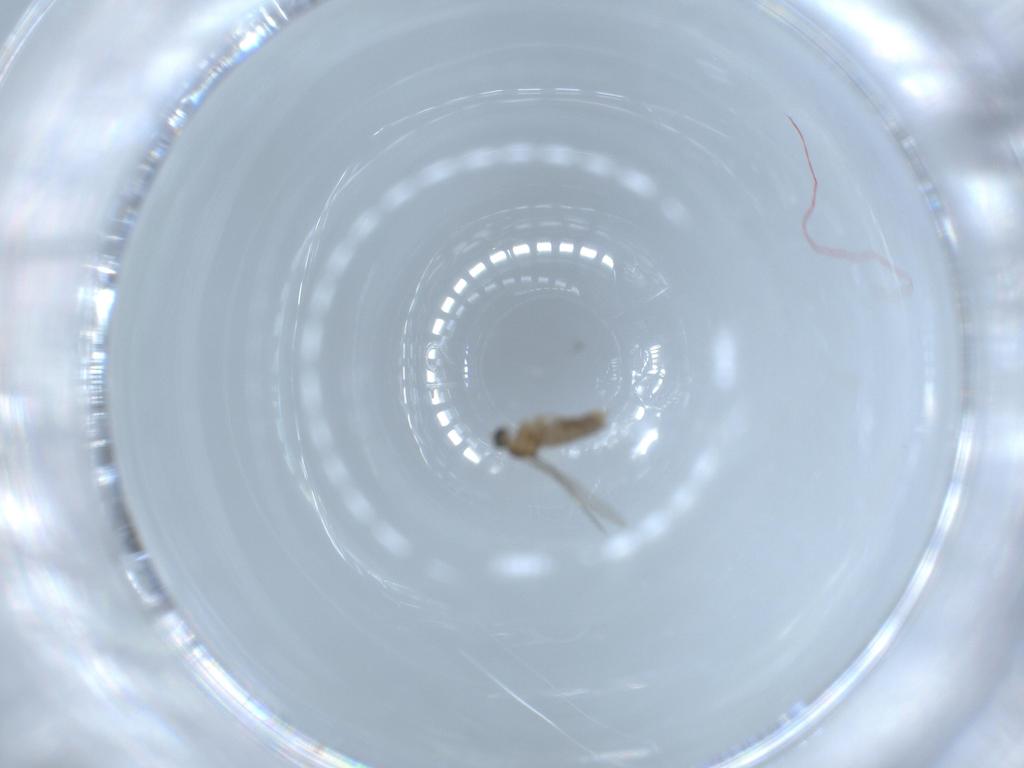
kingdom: Animalia
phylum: Arthropoda
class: Insecta
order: Diptera
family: Cecidomyiidae
